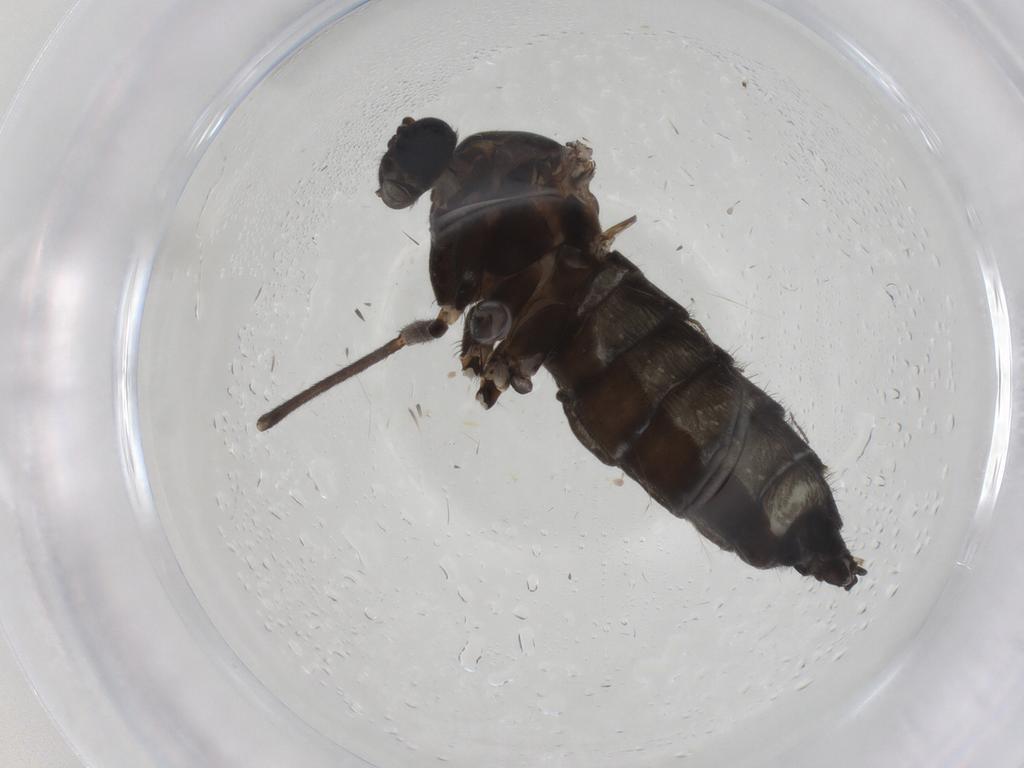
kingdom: Animalia
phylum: Arthropoda
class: Insecta
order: Diptera
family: Sciaridae
